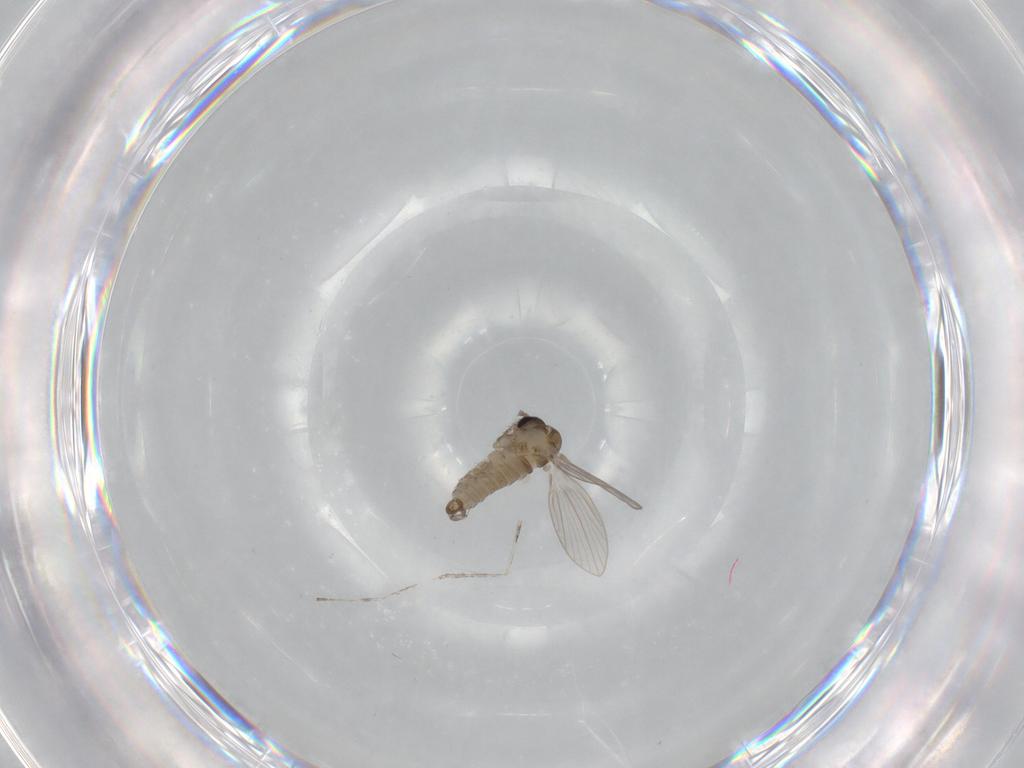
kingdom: Animalia
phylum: Arthropoda
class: Insecta
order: Diptera
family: Psychodidae
